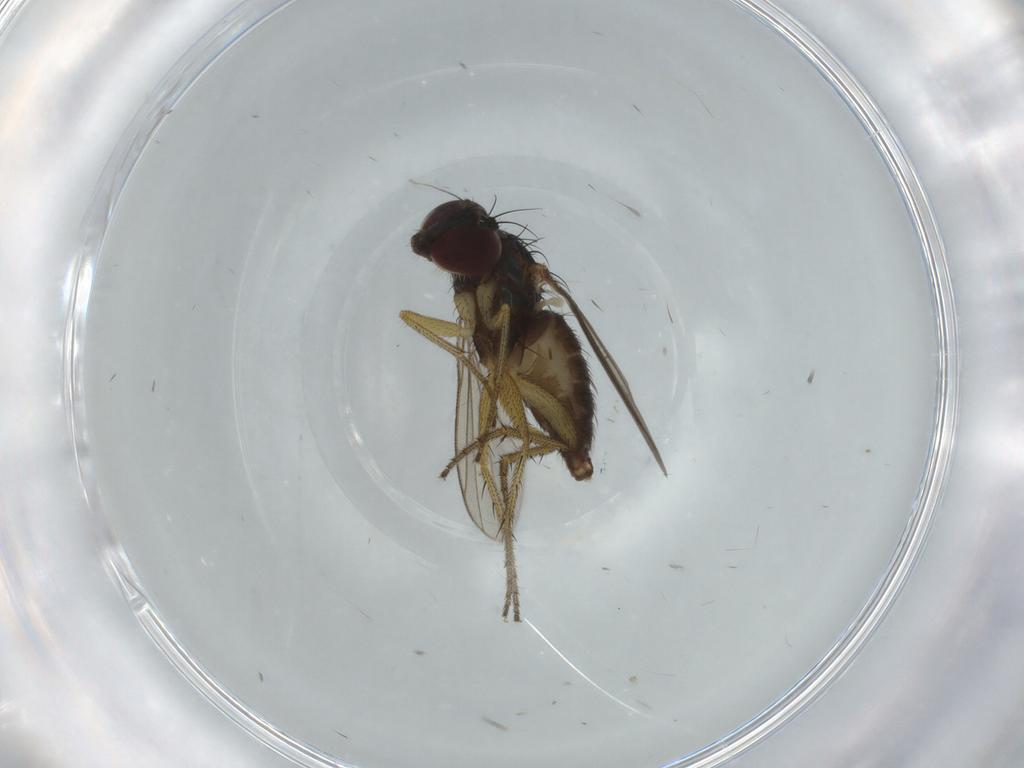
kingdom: Animalia
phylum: Arthropoda
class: Insecta
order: Diptera
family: Dolichopodidae
